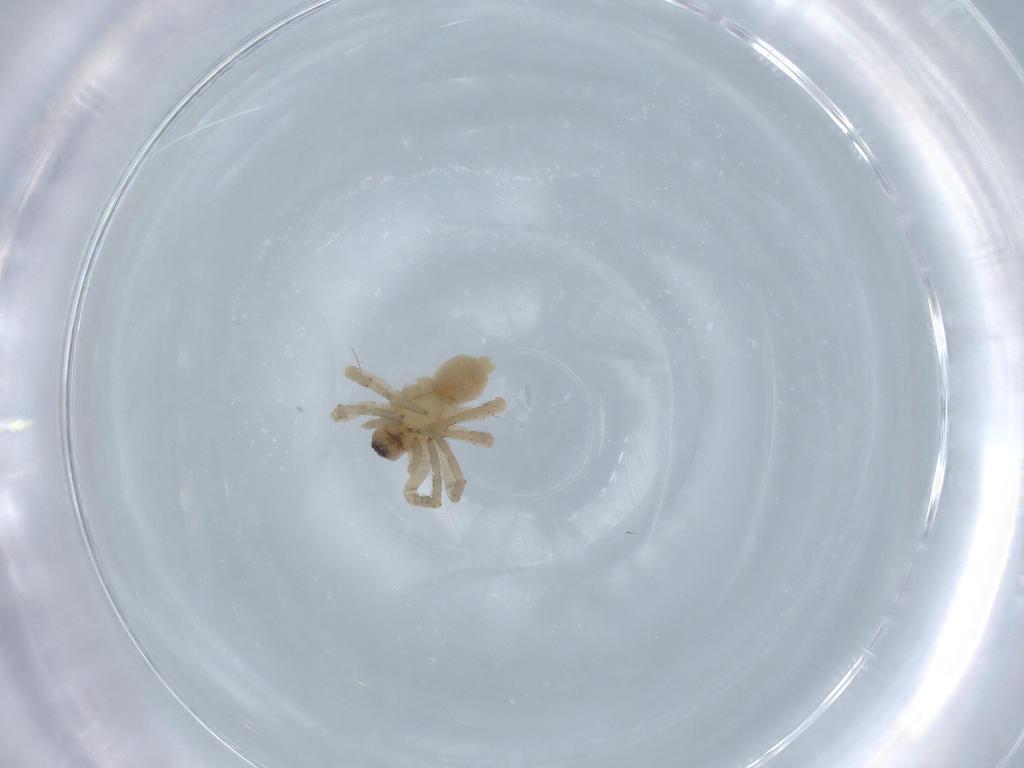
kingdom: Animalia
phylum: Arthropoda
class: Arachnida
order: Araneae
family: Anyphaenidae
